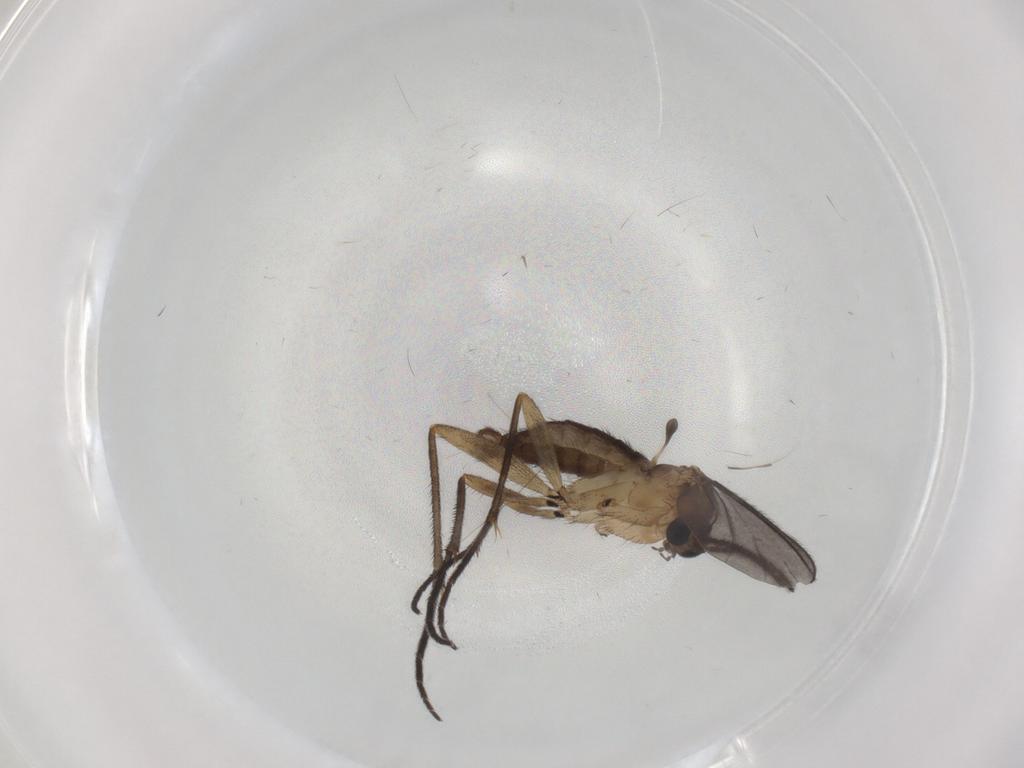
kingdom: Animalia
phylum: Arthropoda
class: Insecta
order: Diptera
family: Sciaridae
